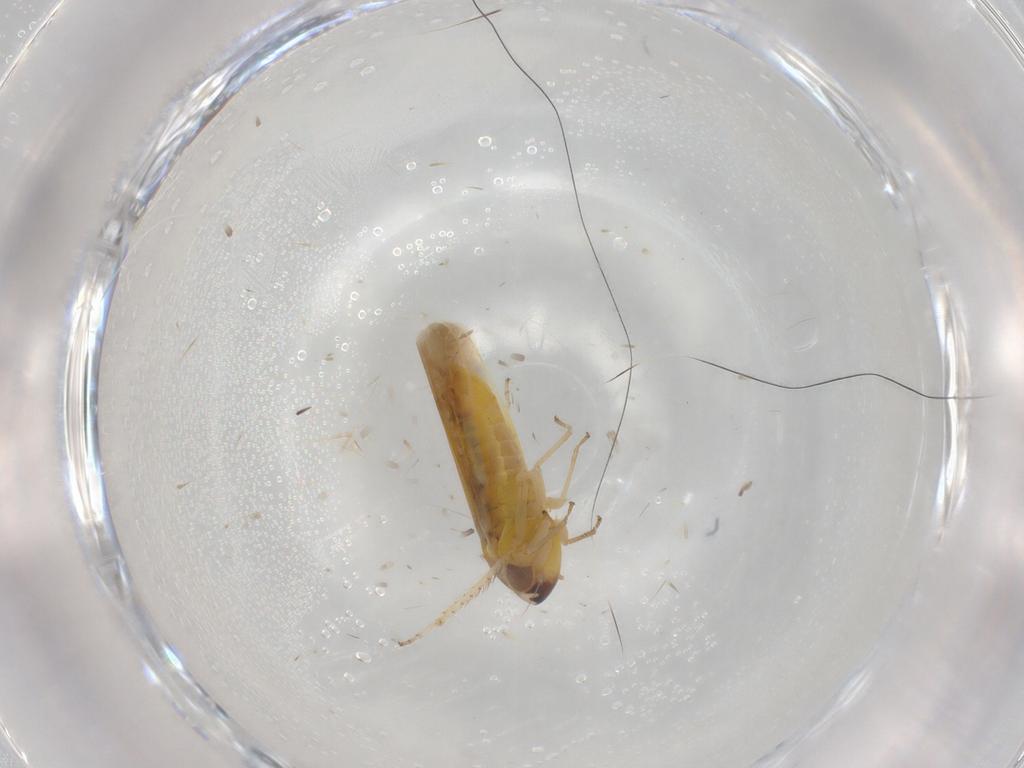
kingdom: Animalia
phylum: Arthropoda
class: Insecta
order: Hemiptera
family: Cicadellidae
